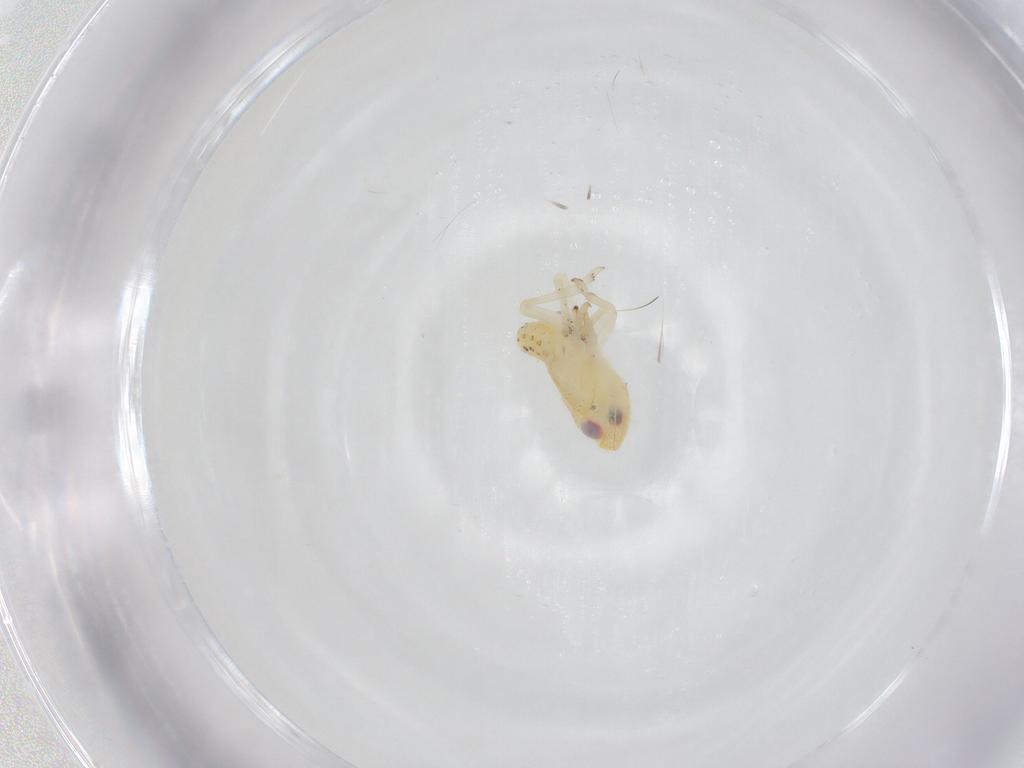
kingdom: Animalia
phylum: Arthropoda
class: Insecta
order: Hemiptera
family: Tropiduchidae
